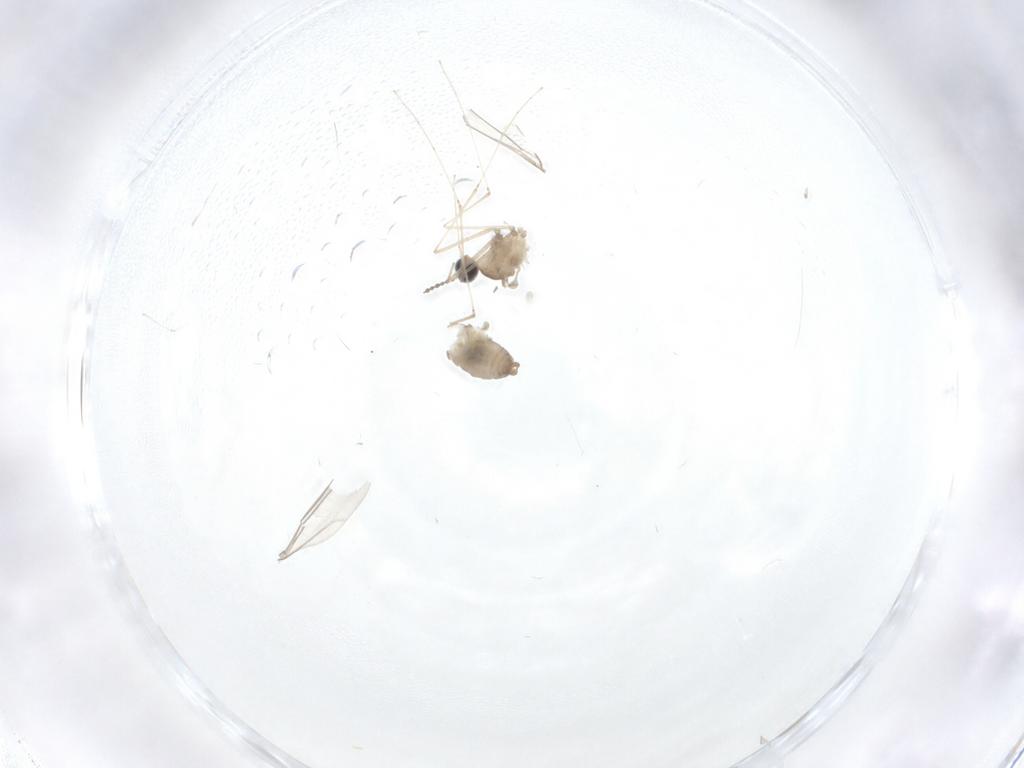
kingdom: Animalia
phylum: Arthropoda
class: Insecta
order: Diptera
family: Cecidomyiidae
